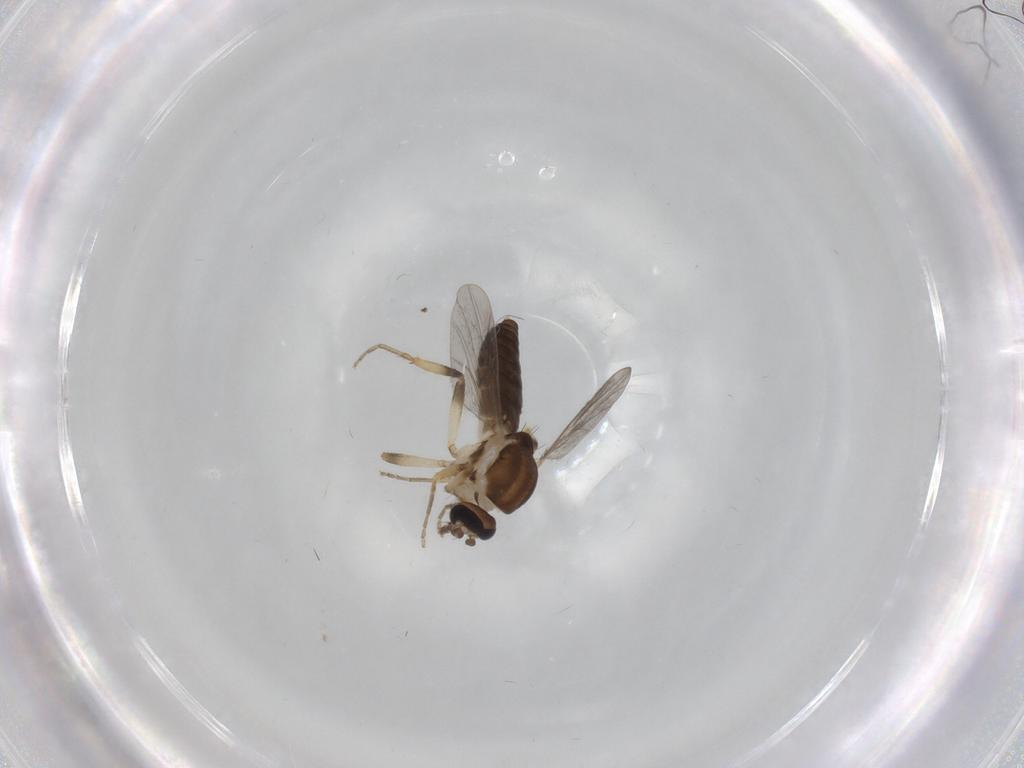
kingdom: Animalia
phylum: Arthropoda
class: Insecta
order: Diptera
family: Ceratopogonidae
